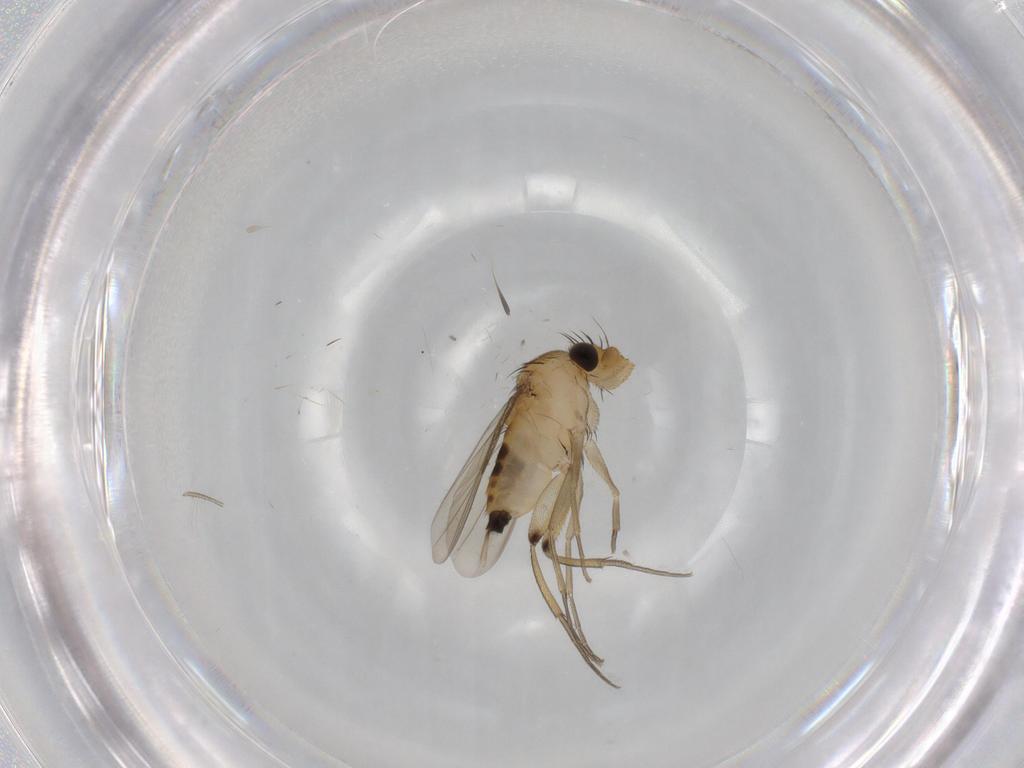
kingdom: Animalia
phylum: Arthropoda
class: Insecta
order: Diptera
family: Phoridae
